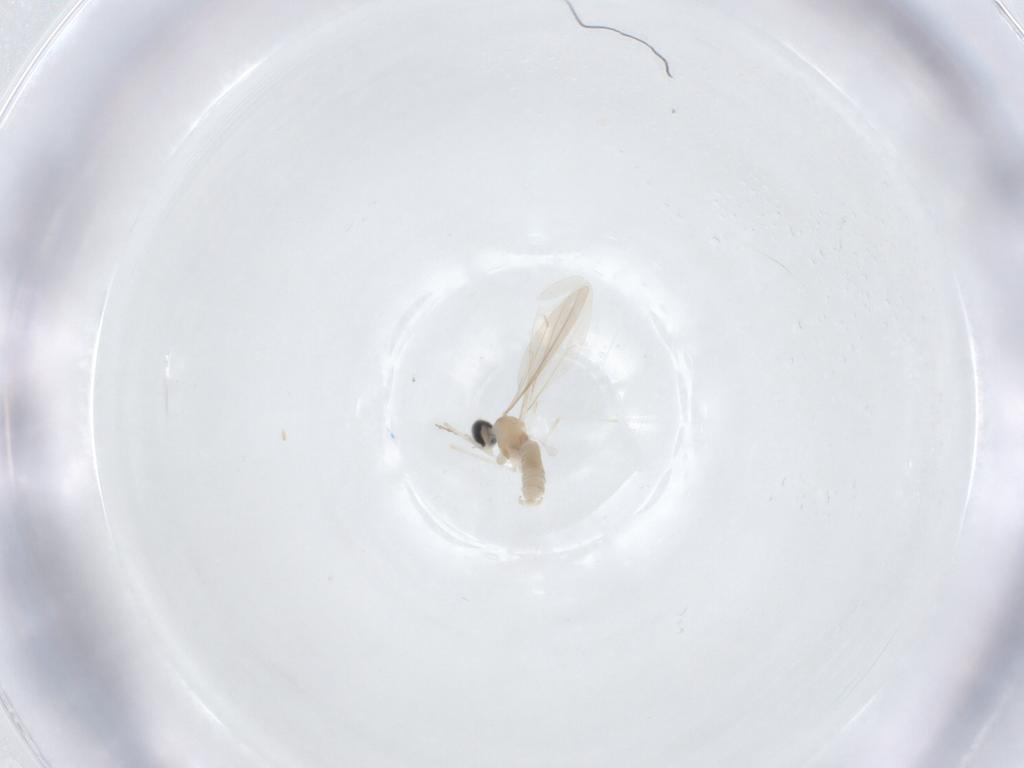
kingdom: Animalia
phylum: Arthropoda
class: Insecta
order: Diptera
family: Cecidomyiidae
